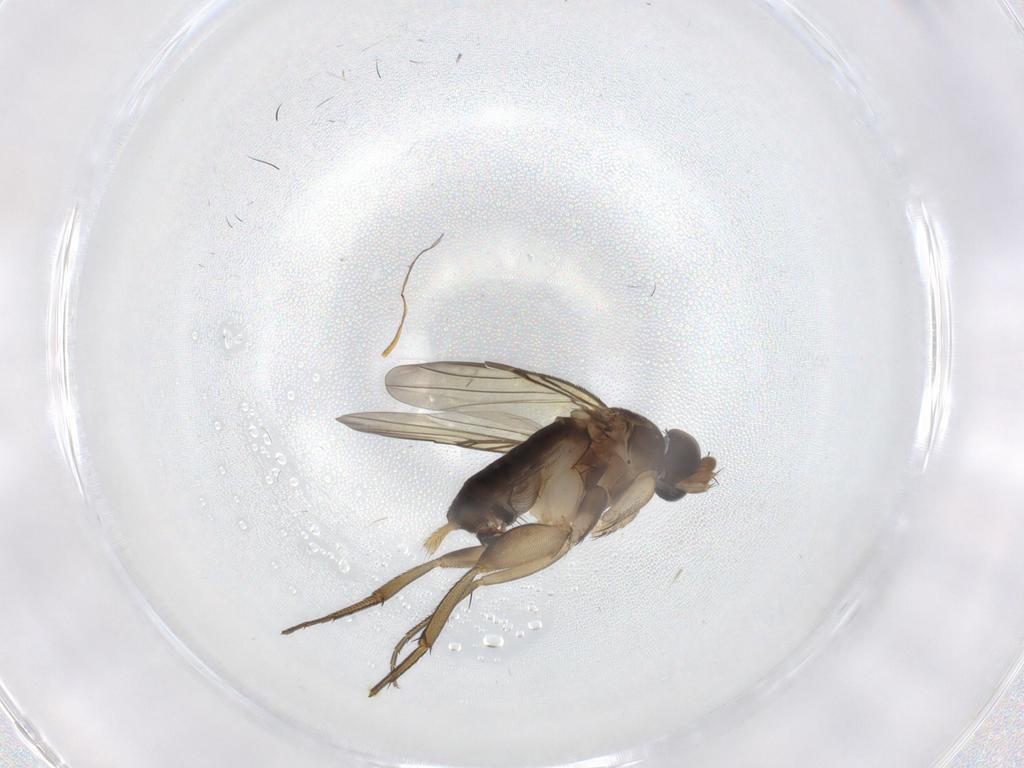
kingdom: Animalia
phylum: Arthropoda
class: Insecta
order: Diptera
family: Phoridae
